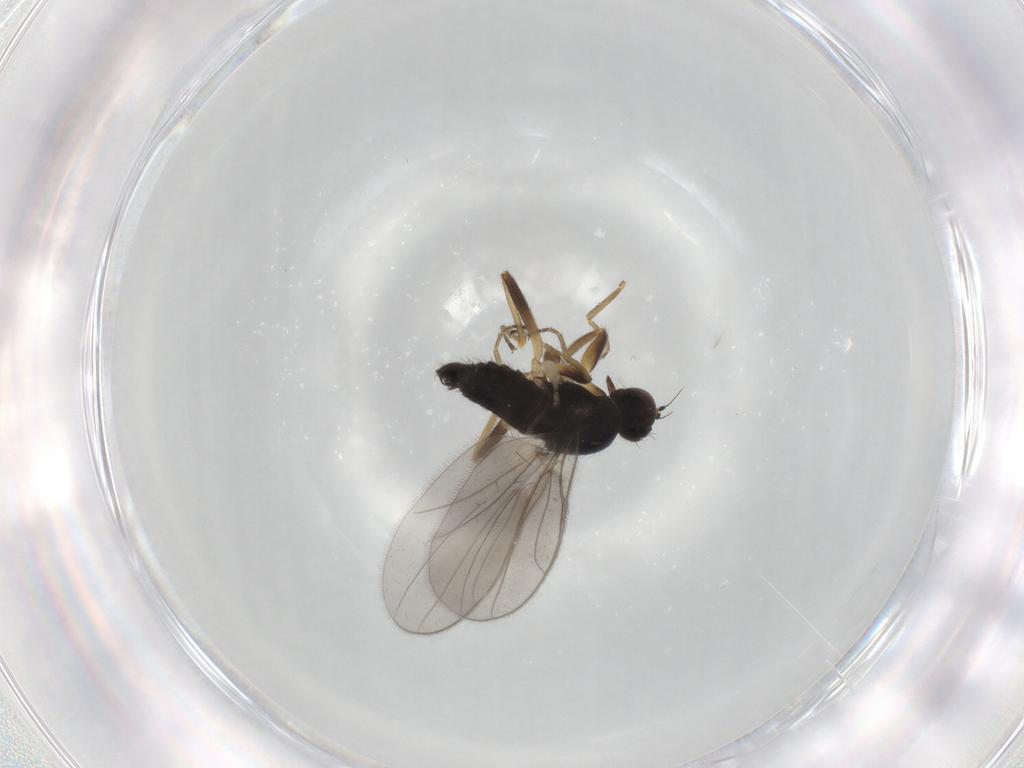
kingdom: Animalia
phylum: Arthropoda
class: Insecta
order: Diptera
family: Hybotidae
